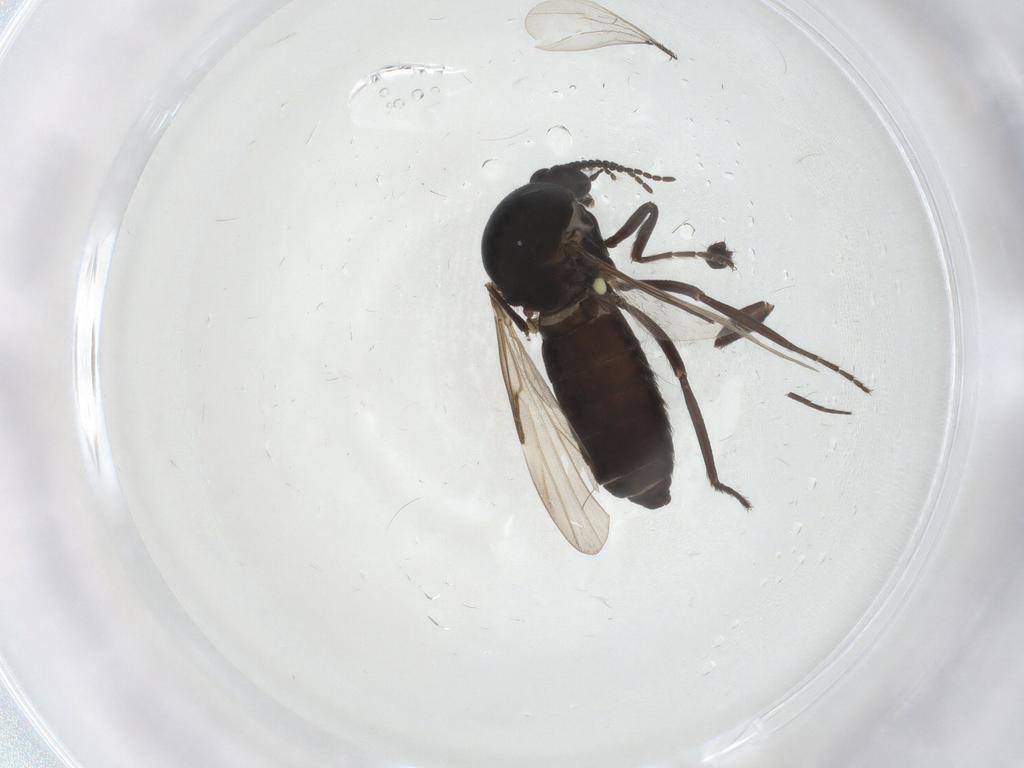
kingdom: Animalia
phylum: Arthropoda
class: Insecta
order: Diptera
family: Ceratopogonidae
